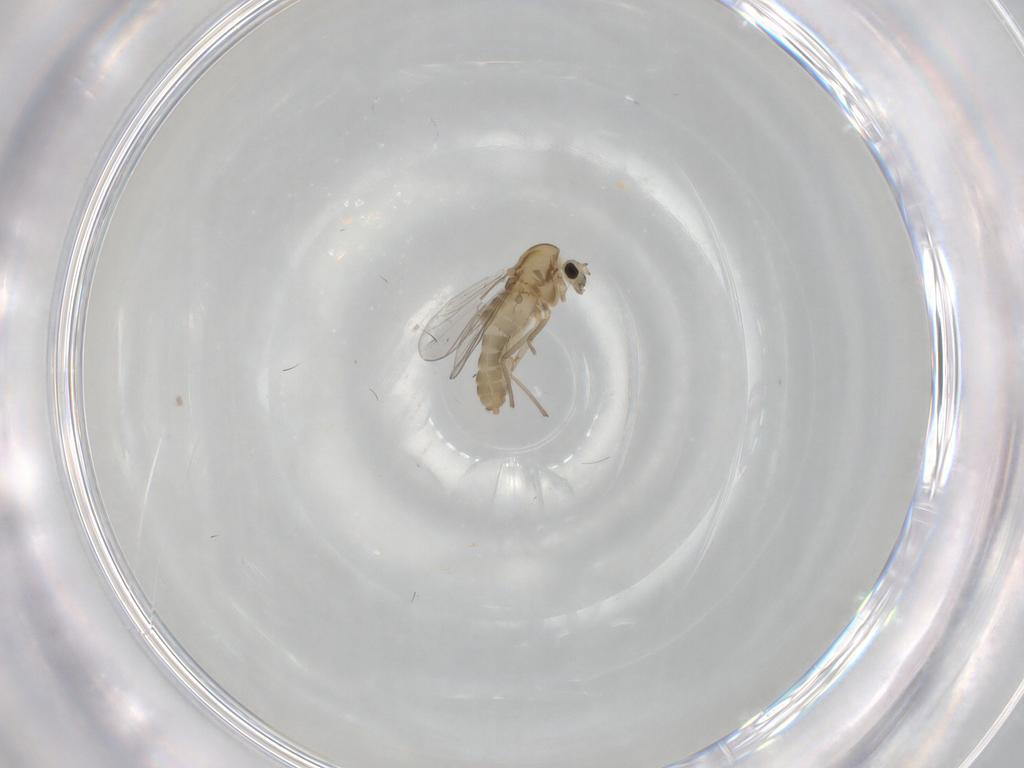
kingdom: Animalia
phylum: Arthropoda
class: Insecta
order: Diptera
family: Chironomidae
